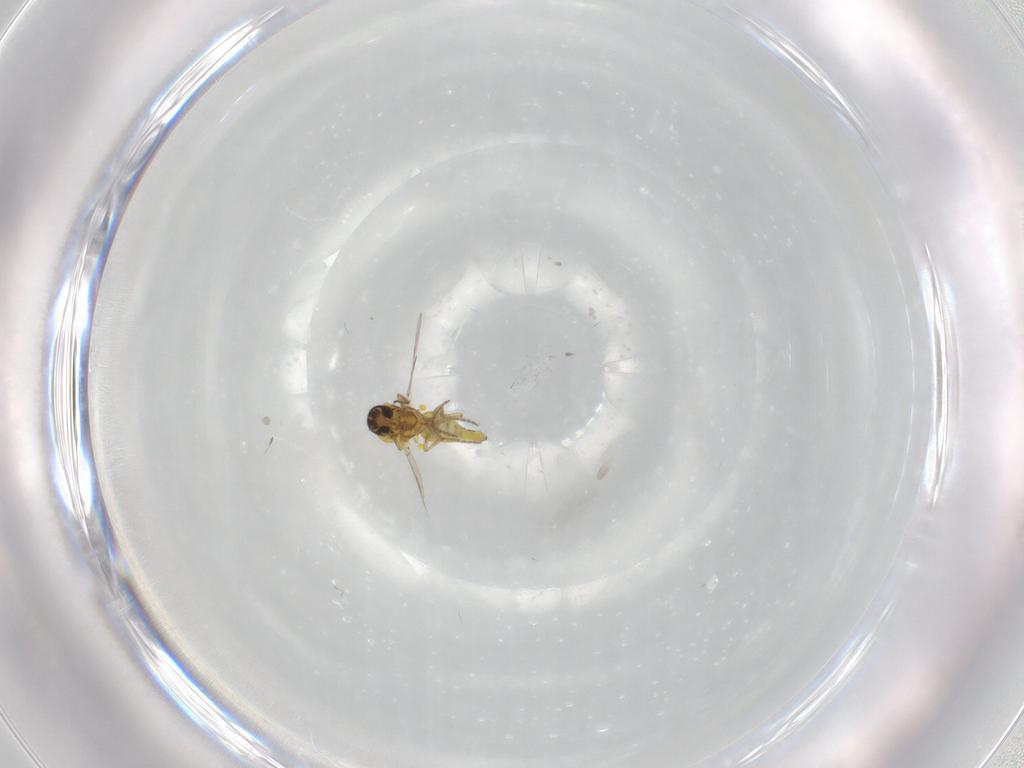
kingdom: Animalia
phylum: Arthropoda
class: Insecta
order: Diptera
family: Ceratopogonidae
